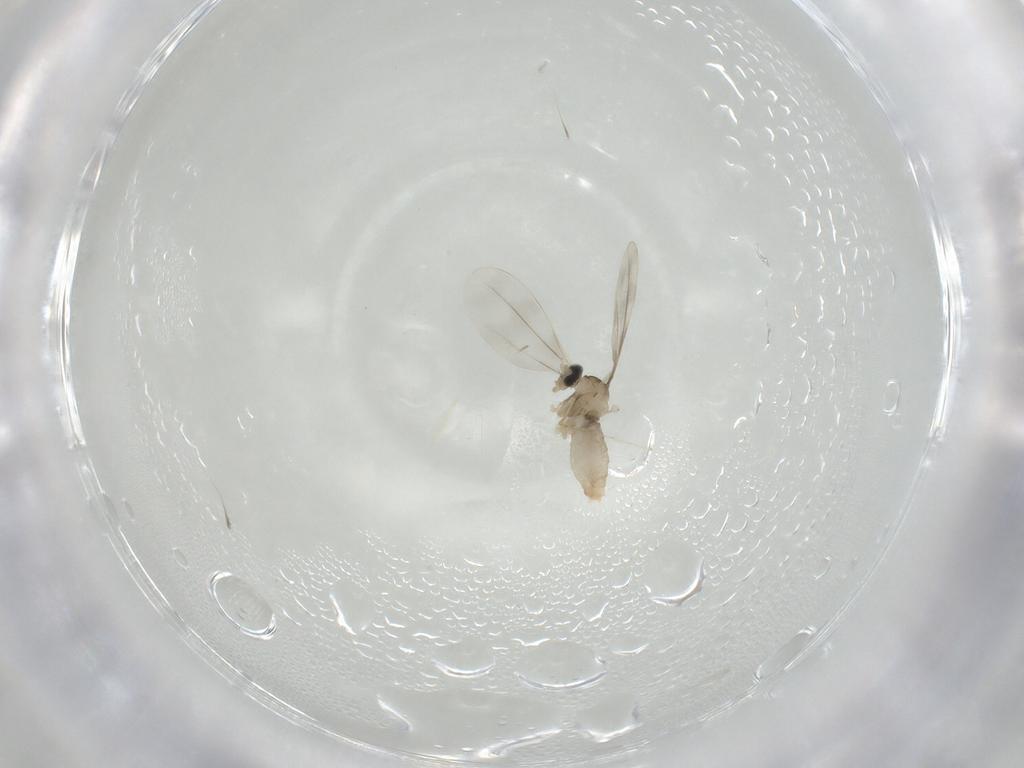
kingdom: Animalia
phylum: Arthropoda
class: Insecta
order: Diptera
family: Cecidomyiidae
